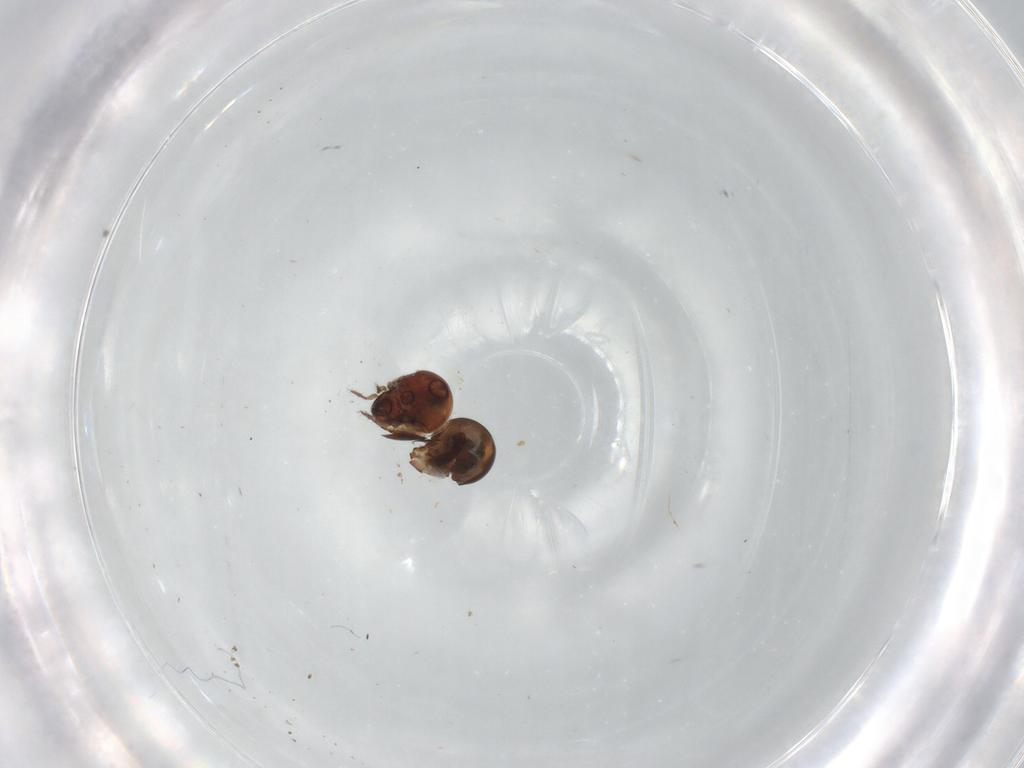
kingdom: Animalia
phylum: Arthropoda
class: Arachnida
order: Sarcoptiformes
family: Ceratozetidae
